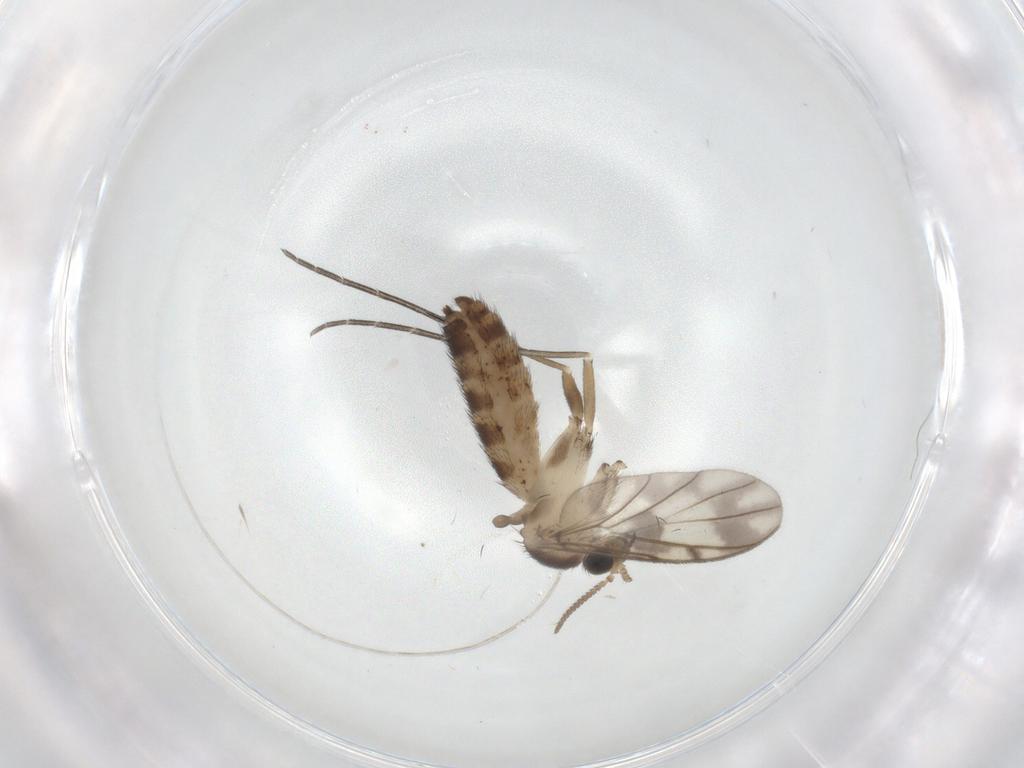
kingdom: Animalia
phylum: Arthropoda
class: Insecta
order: Diptera
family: Keroplatidae
